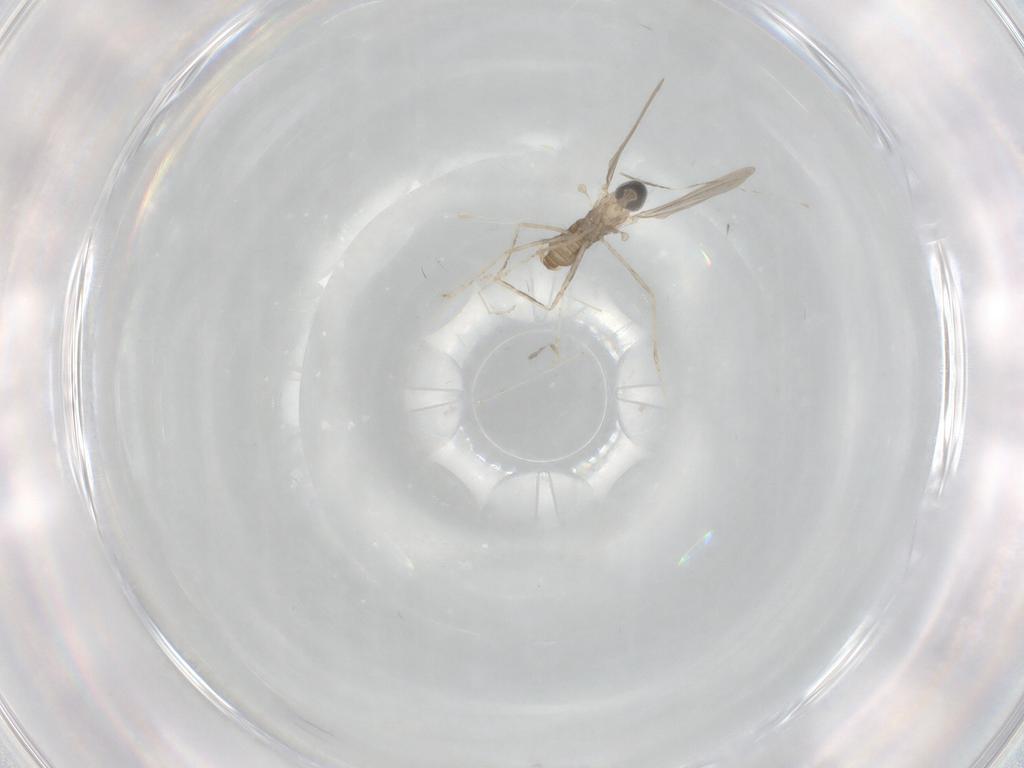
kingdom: Animalia
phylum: Arthropoda
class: Insecta
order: Diptera
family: Cecidomyiidae
